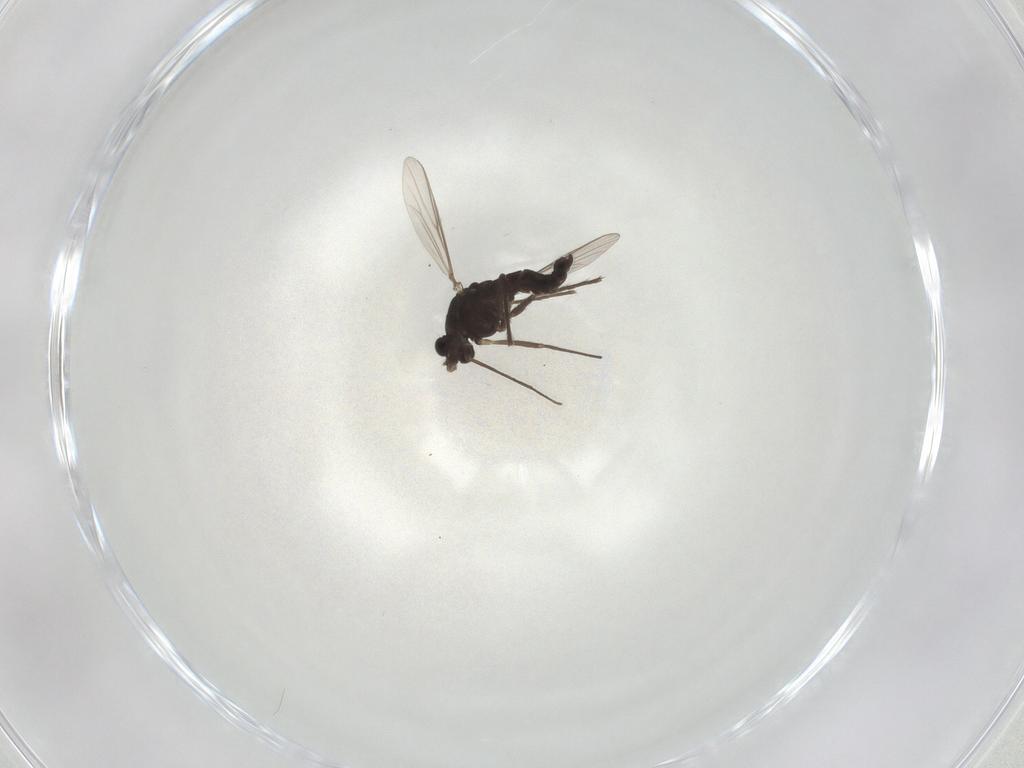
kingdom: Animalia
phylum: Arthropoda
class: Insecta
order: Diptera
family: Chironomidae
